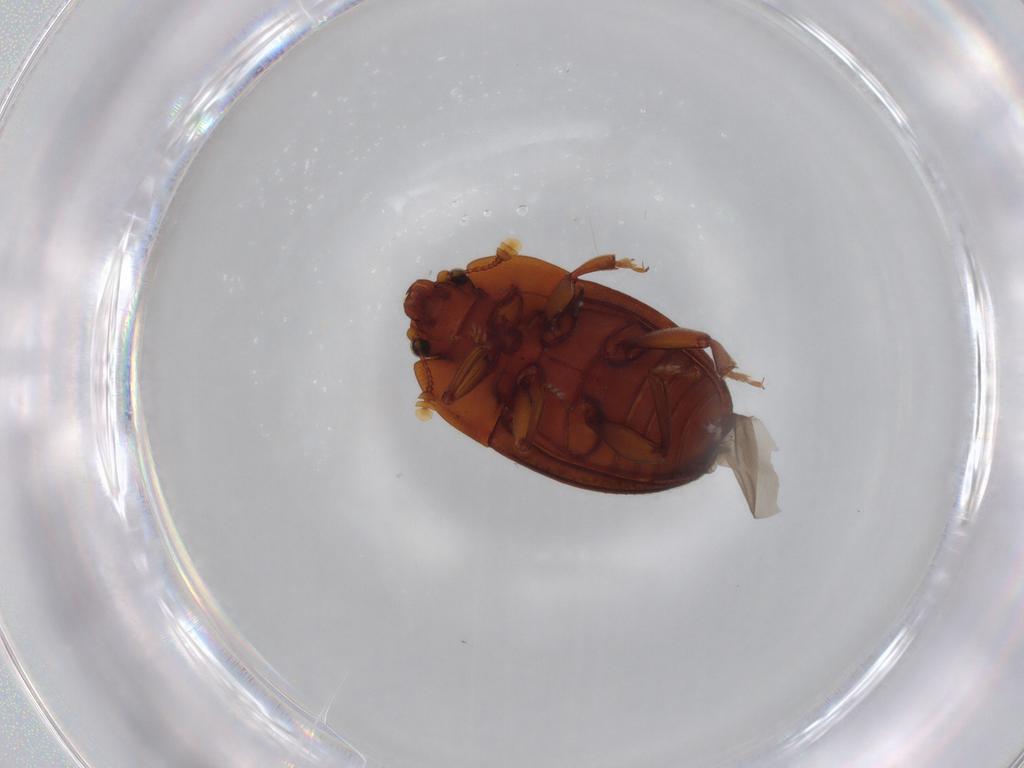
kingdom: Animalia
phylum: Arthropoda
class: Insecta
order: Coleoptera
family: Nitidulidae
